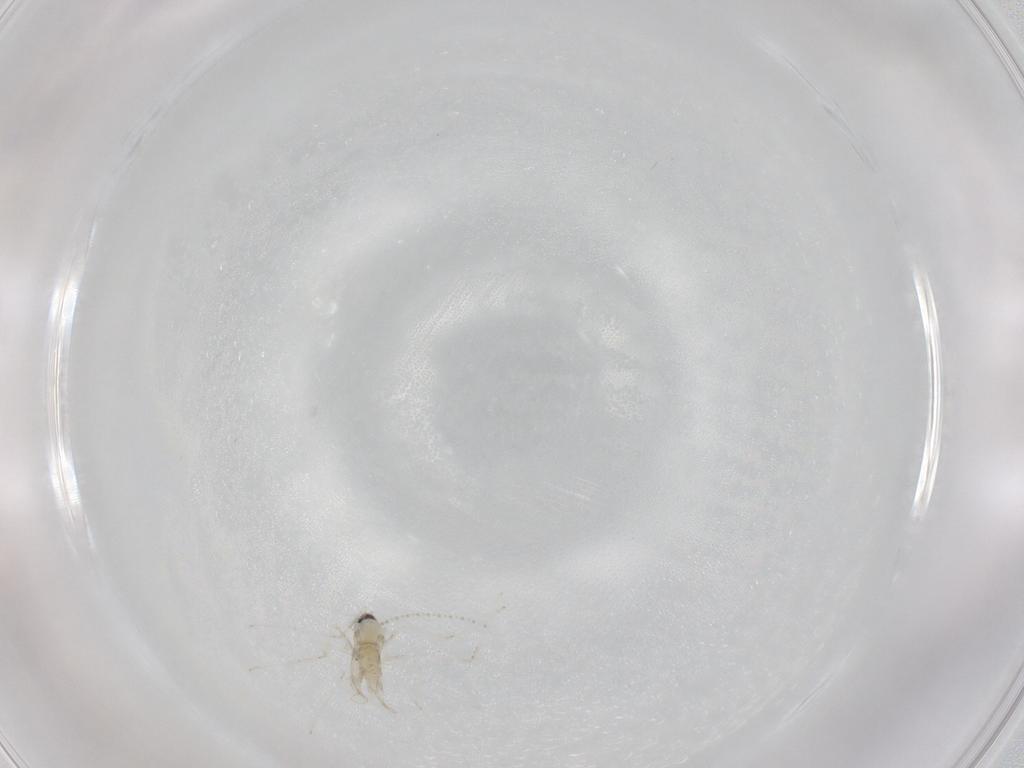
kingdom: Animalia
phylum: Arthropoda
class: Insecta
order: Diptera
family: Cecidomyiidae
